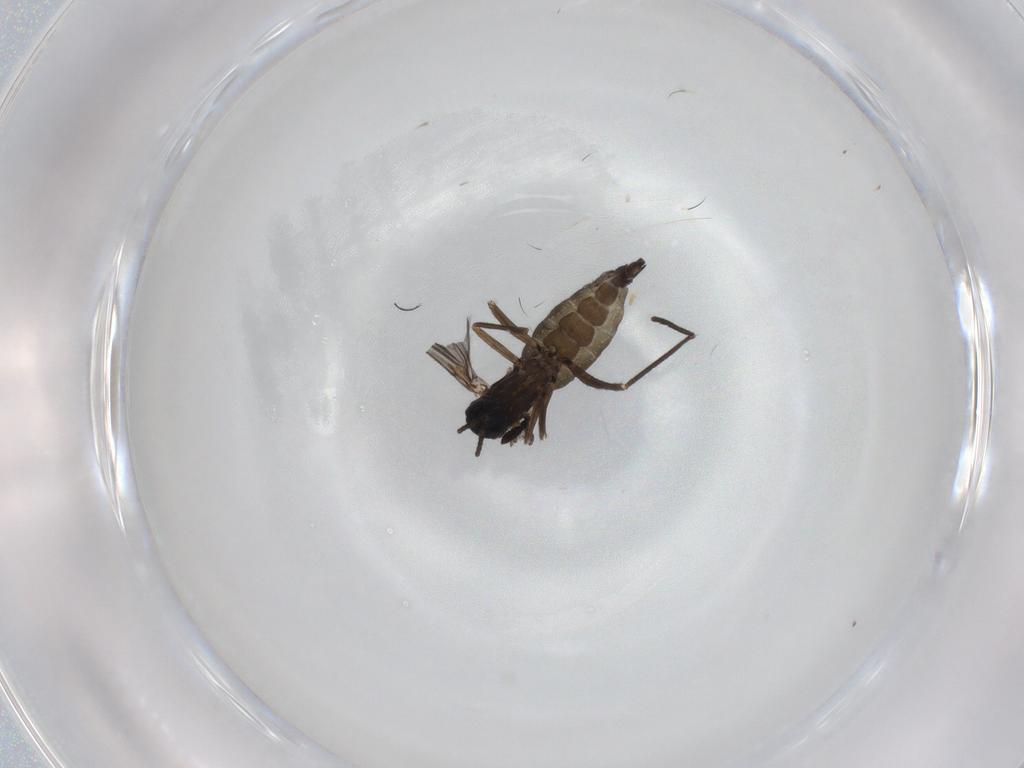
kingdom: Animalia
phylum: Arthropoda
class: Insecta
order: Diptera
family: Sciaridae
